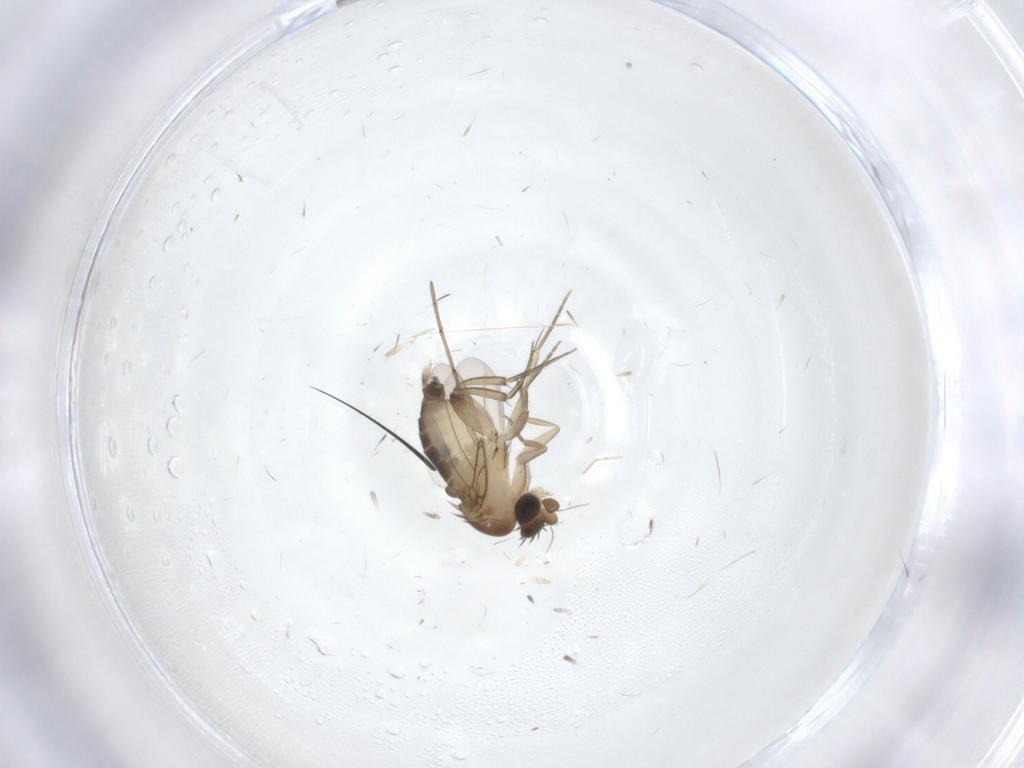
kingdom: Animalia
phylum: Arthropoda
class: Insecta
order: Diptera
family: Phoridae
